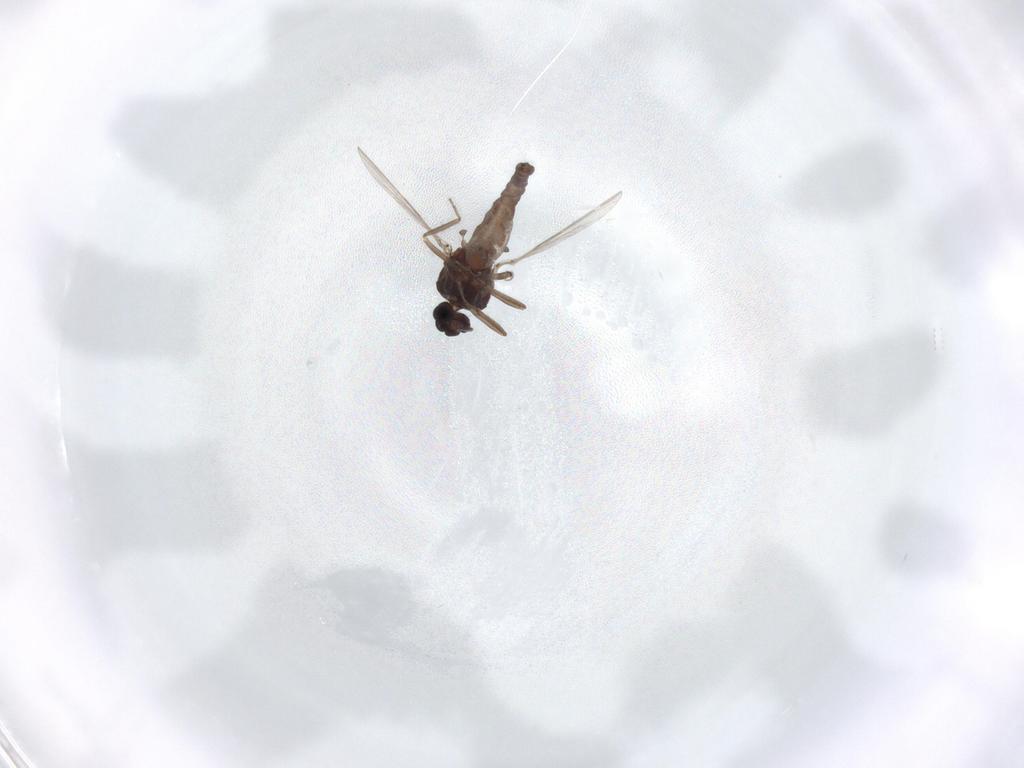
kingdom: Animalia
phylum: Arthropoda
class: Insecta
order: Diptera
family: Ceratopogonidae
